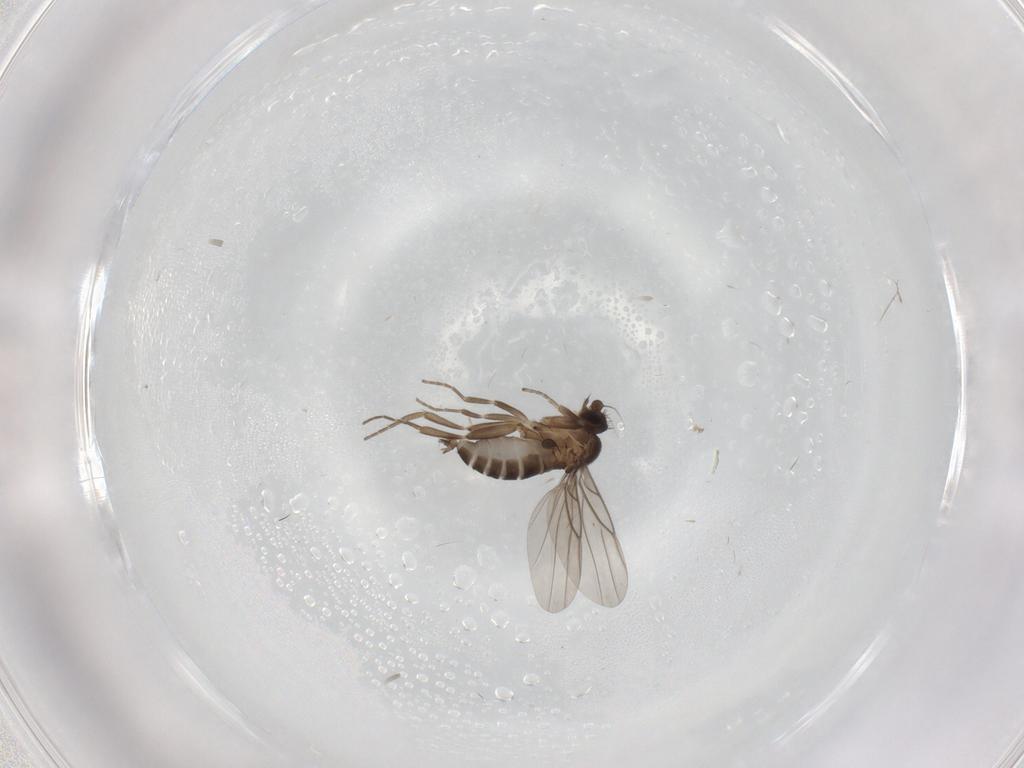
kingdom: Animalia
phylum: Arthropoda
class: Insecta
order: Diptera
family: Phoridae
